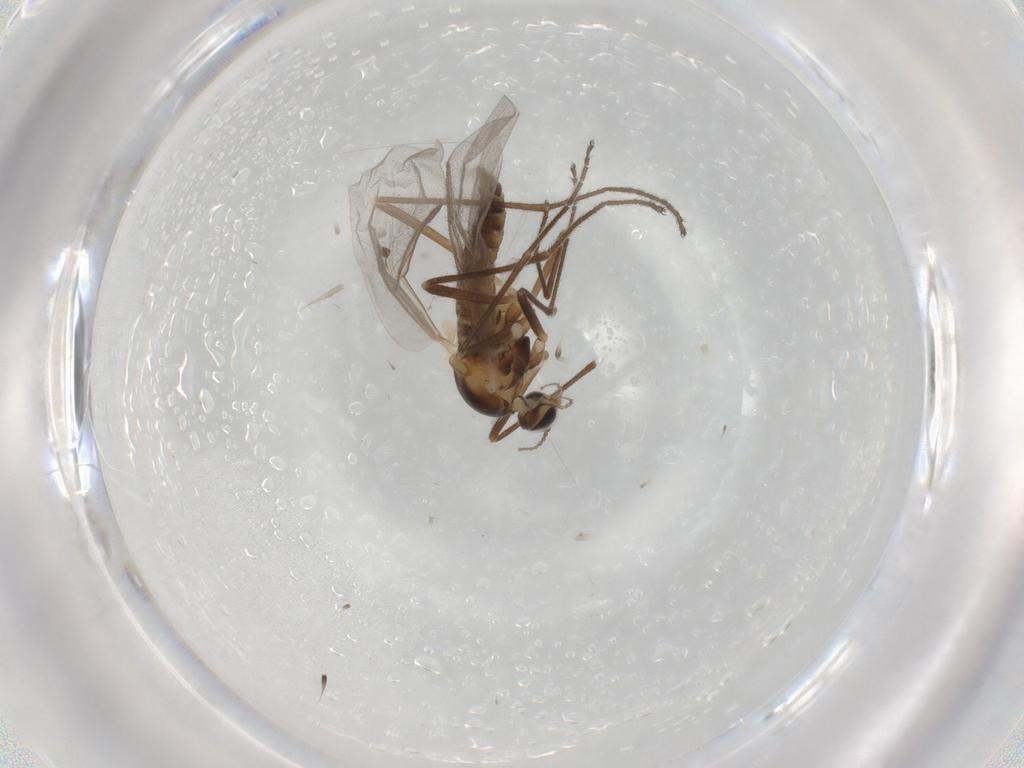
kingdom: Animalia
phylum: Arthropoda
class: Insecta
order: Diptera
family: Cecidomyiidae
